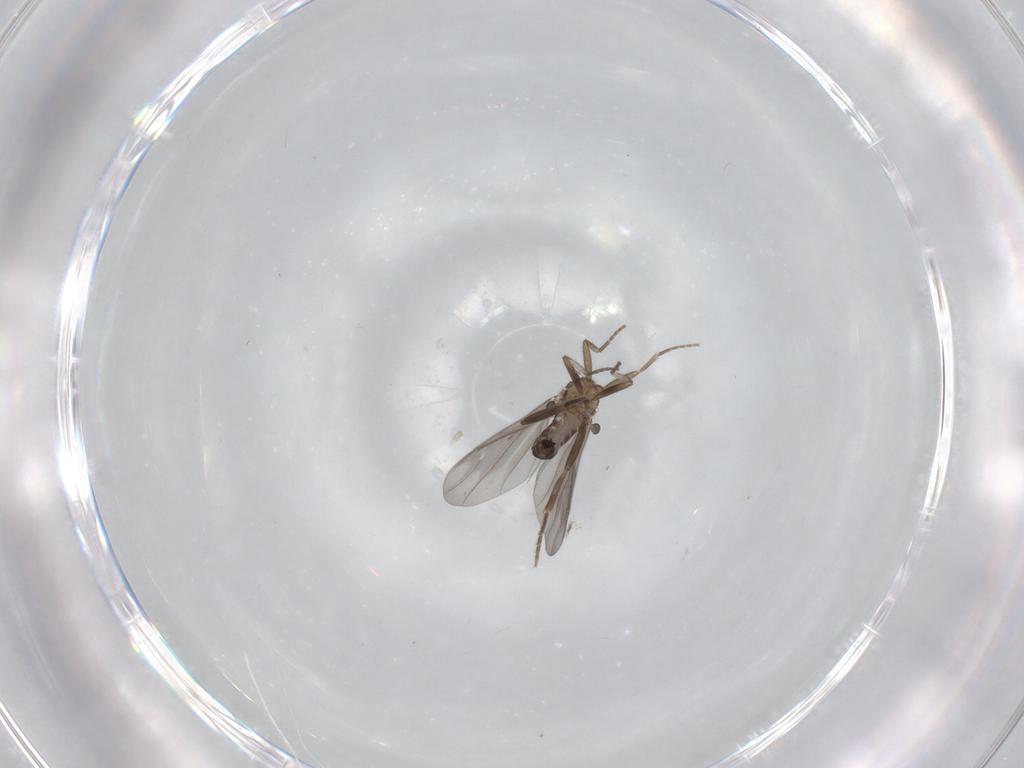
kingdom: Animalia
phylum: Arthropoda
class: Insecta
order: Diptera
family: Phoridae
